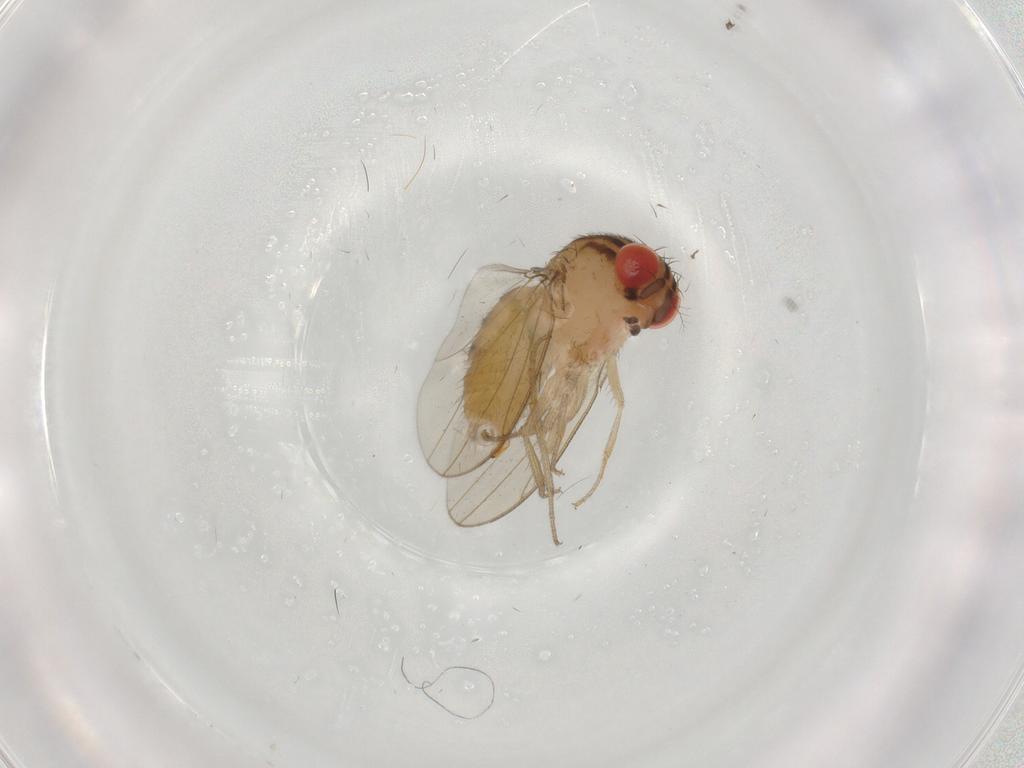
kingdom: Animalia
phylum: Arthropoda
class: Insecta
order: Diptera
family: Drosophilidae
